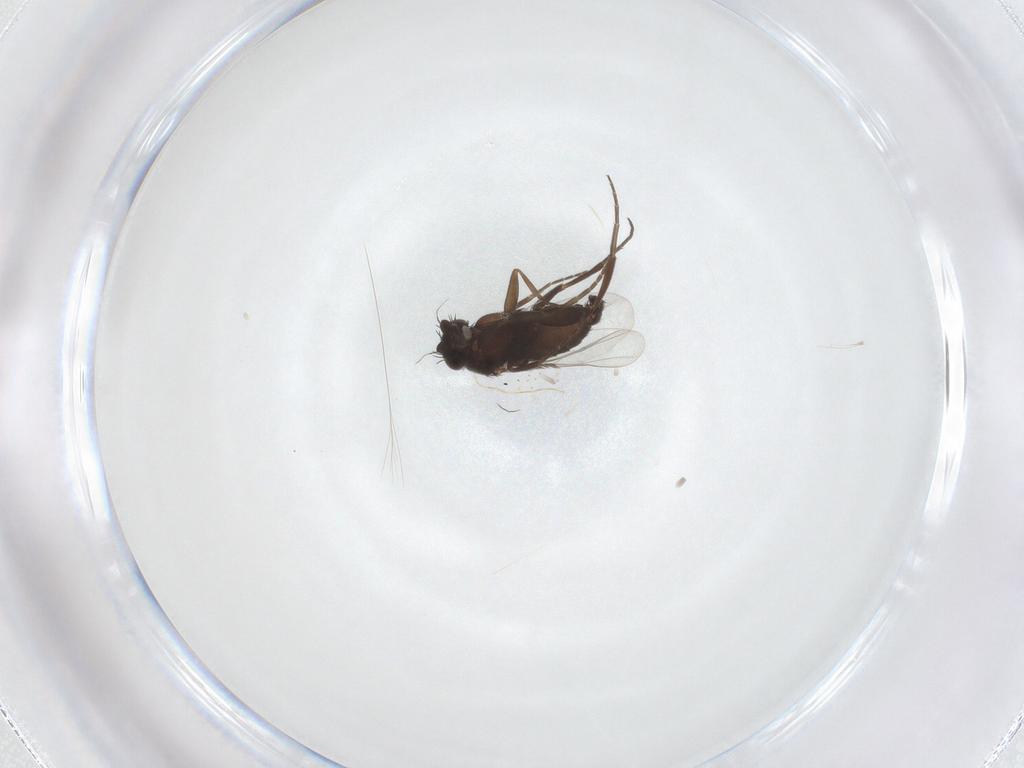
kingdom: Animalia
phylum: Arthropoda
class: Insecta
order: Diptera
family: Phoridae
